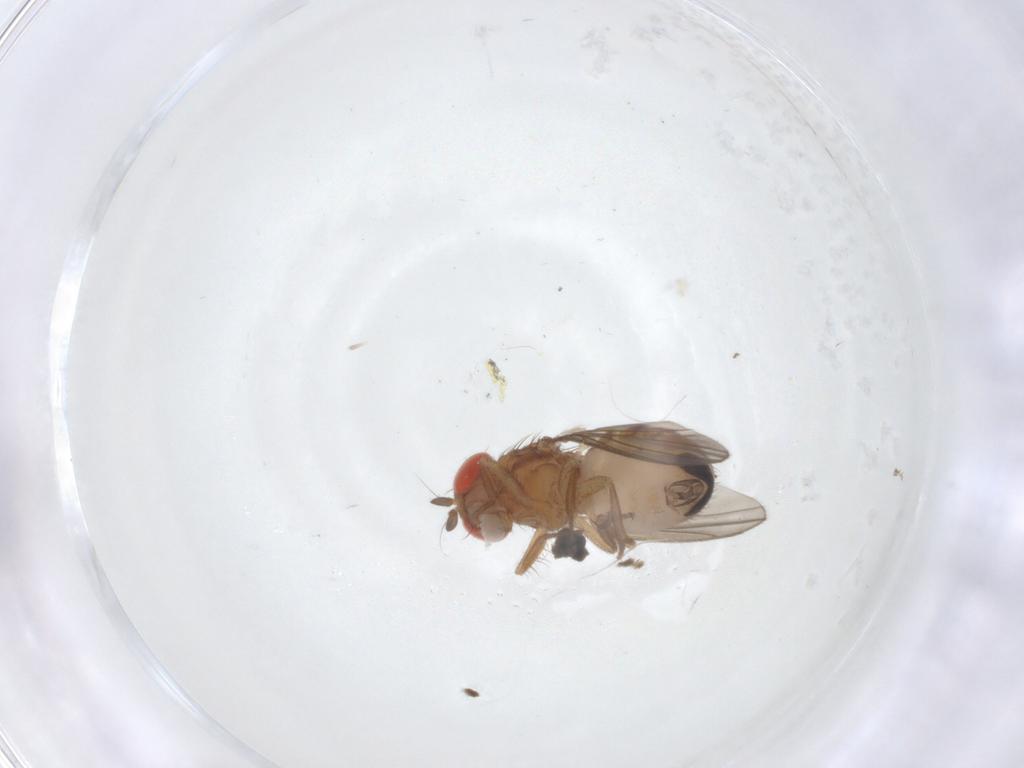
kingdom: Animalia
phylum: Arthropoda
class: Insecta
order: Diptera
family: Drosophilidae
